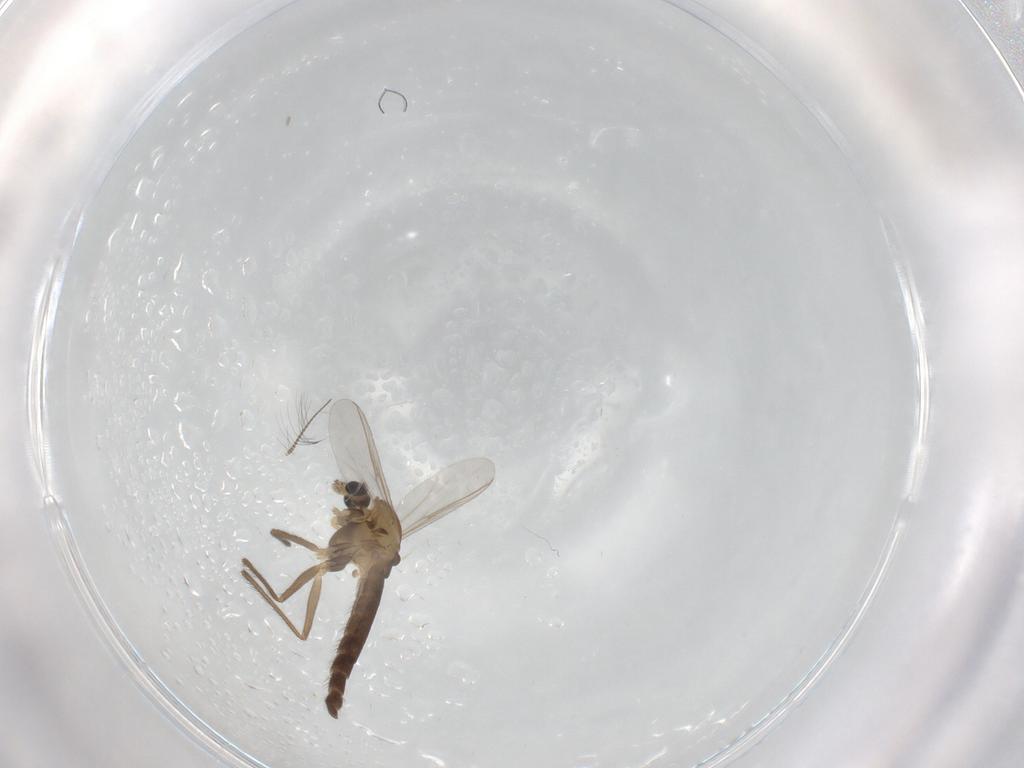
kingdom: Animalia
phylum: Arthropoda
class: Insecta
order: Diptera
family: Chironomidae
